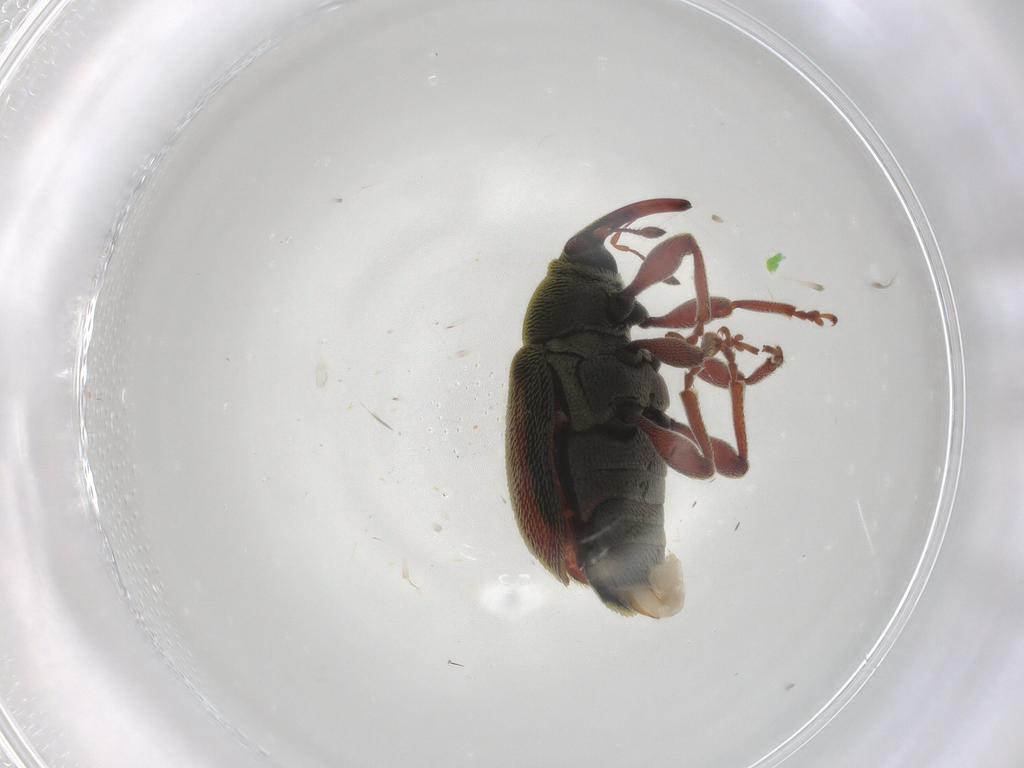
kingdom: Animalia
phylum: Arthropoda
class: Insecta
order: Coleoptera
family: Curculionidae
